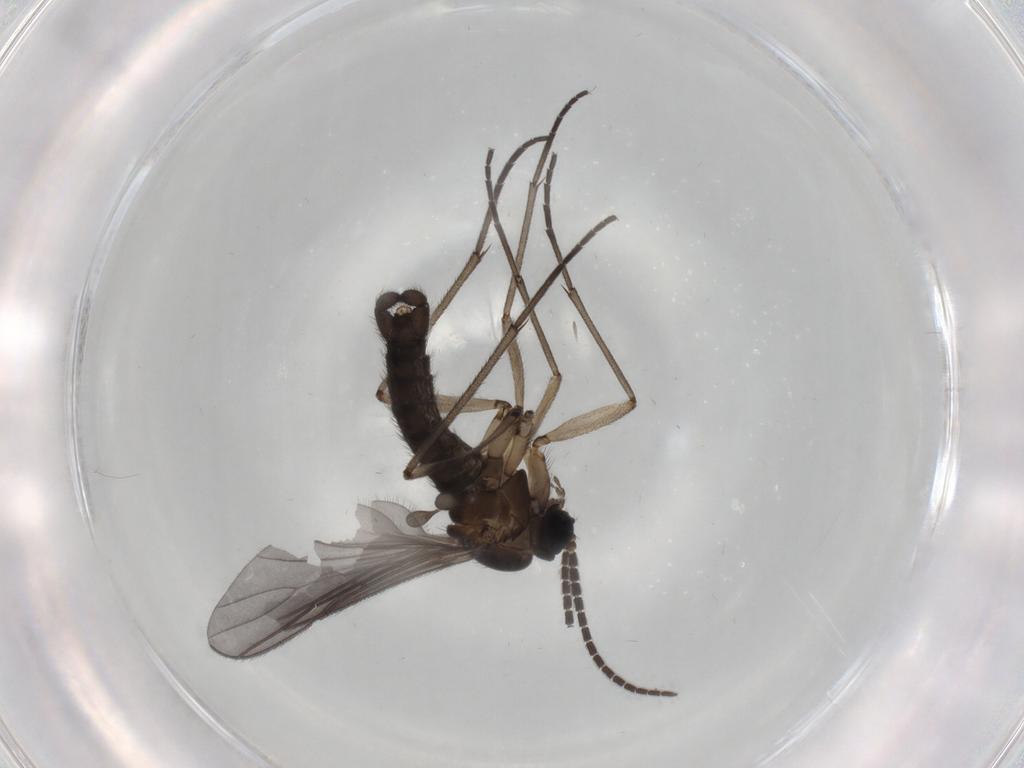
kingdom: Animalia
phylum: Arthropoda
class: Insecta
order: Diptera
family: Sciaridae
